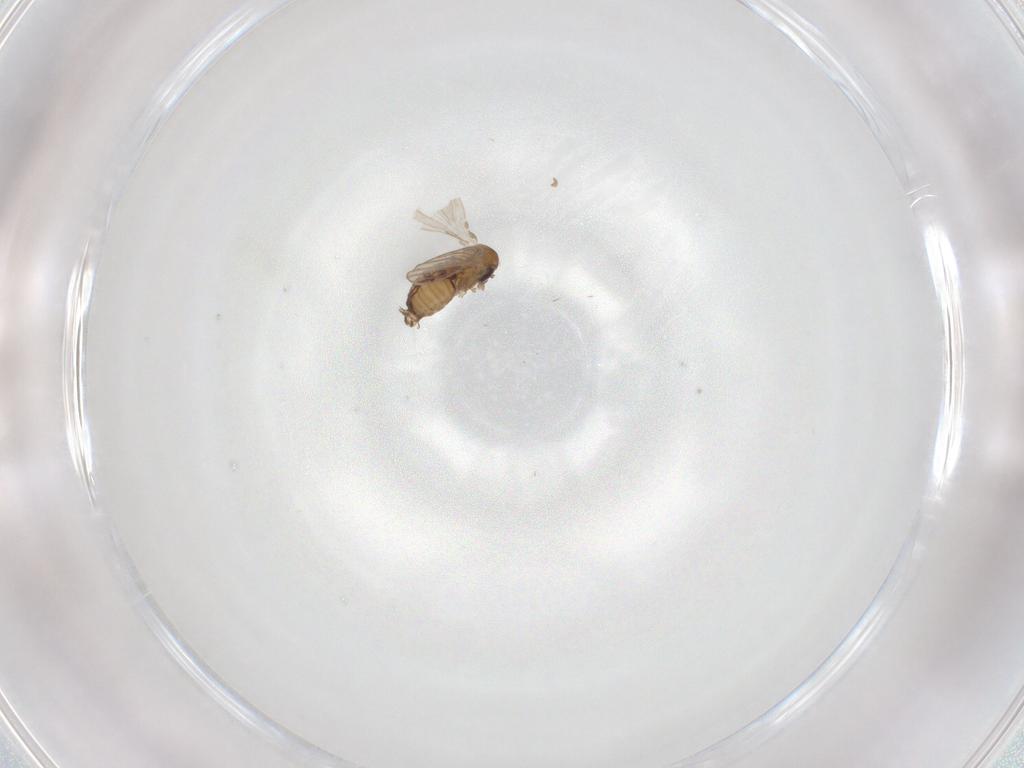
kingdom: Animalia
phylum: Arthropoda
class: Insecta
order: Diptera
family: Psychodidae
